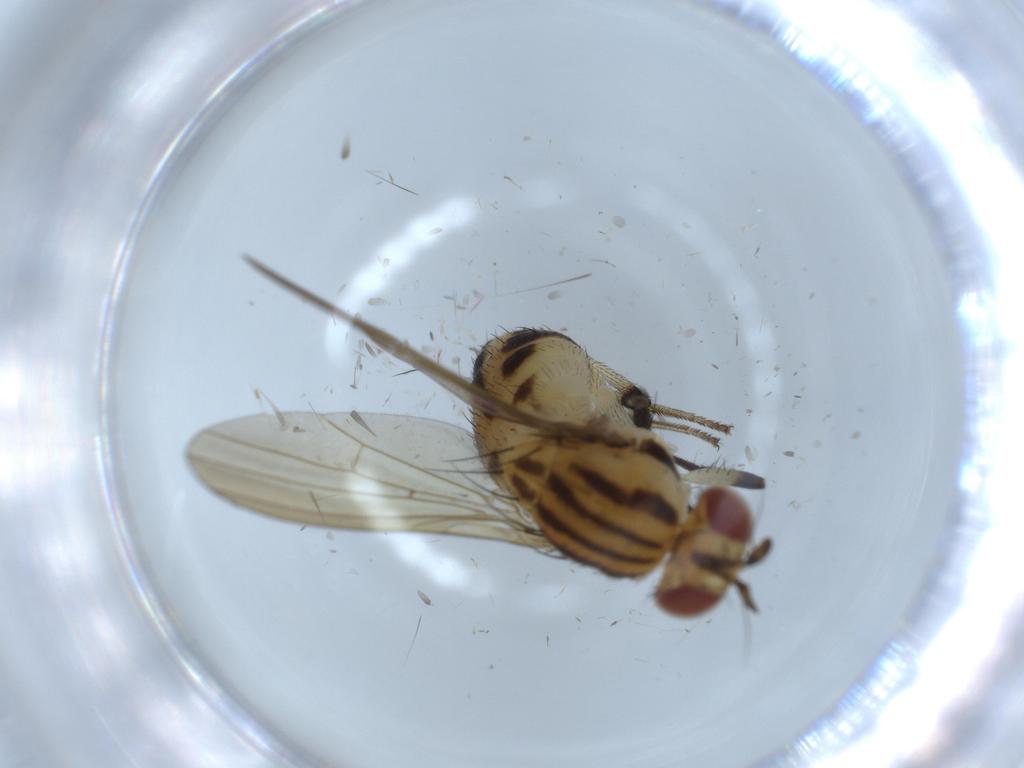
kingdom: Animalia
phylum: Arthropoda
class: Insecta
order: Diptera
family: Lauxaniidae
